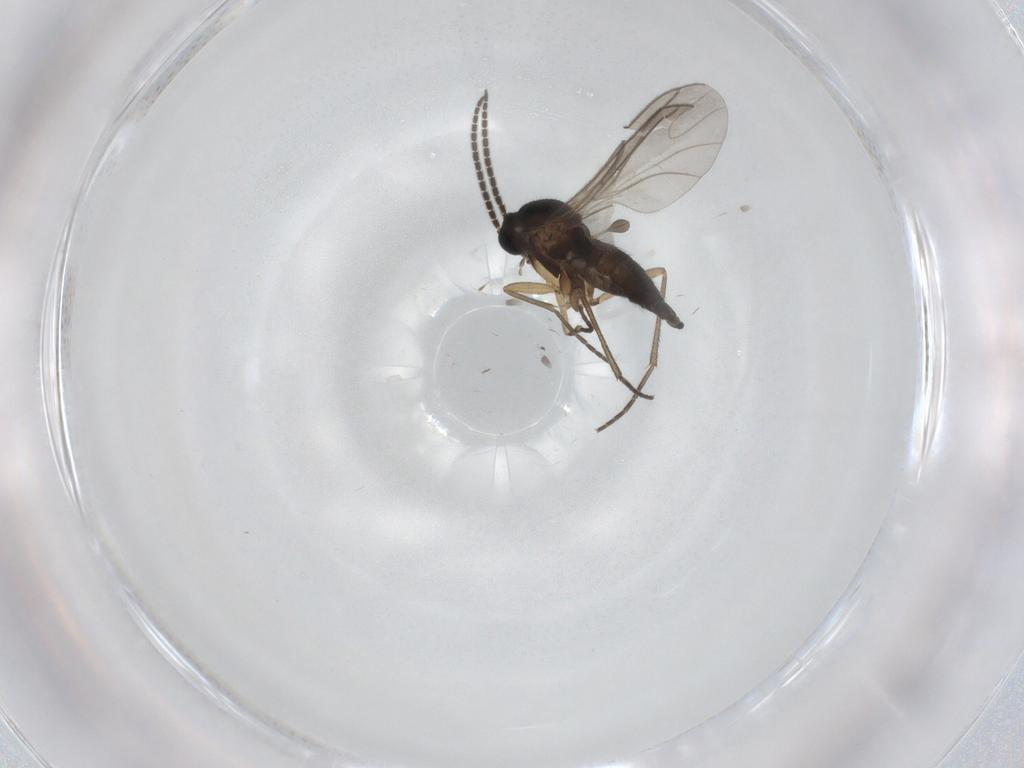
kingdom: Animalia
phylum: Arthropoda
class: Insecta
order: Diptera
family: Sciaridae
